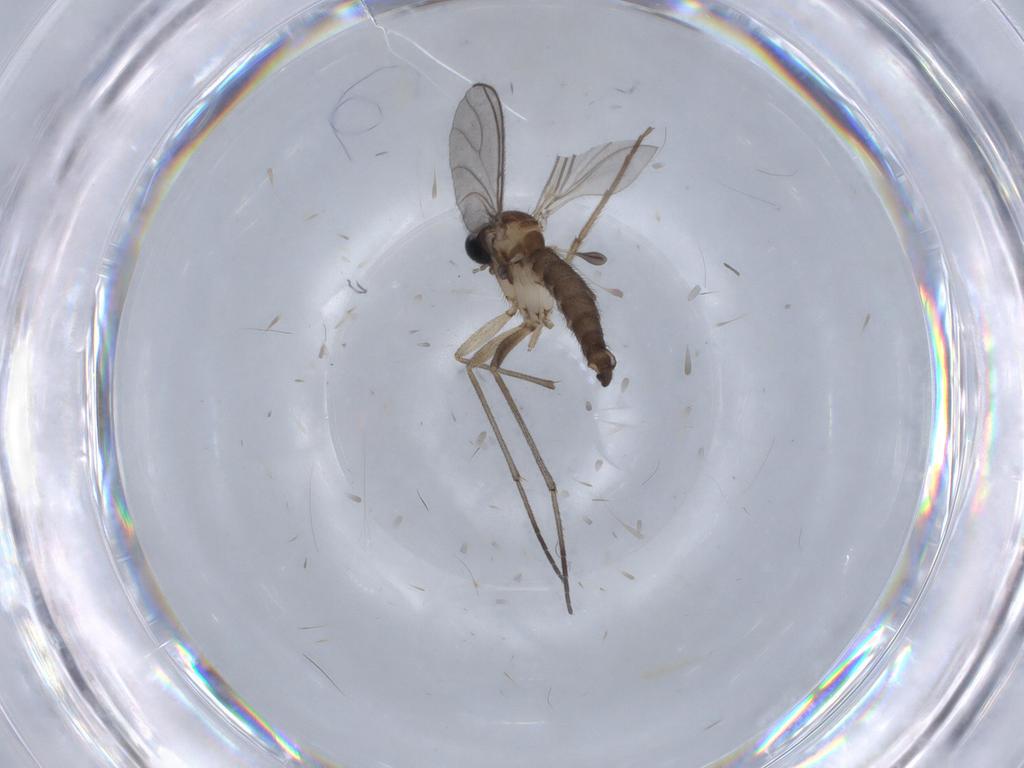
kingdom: Animalia
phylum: Arthropoda
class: Insecta
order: Diptera
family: Sciaridae
